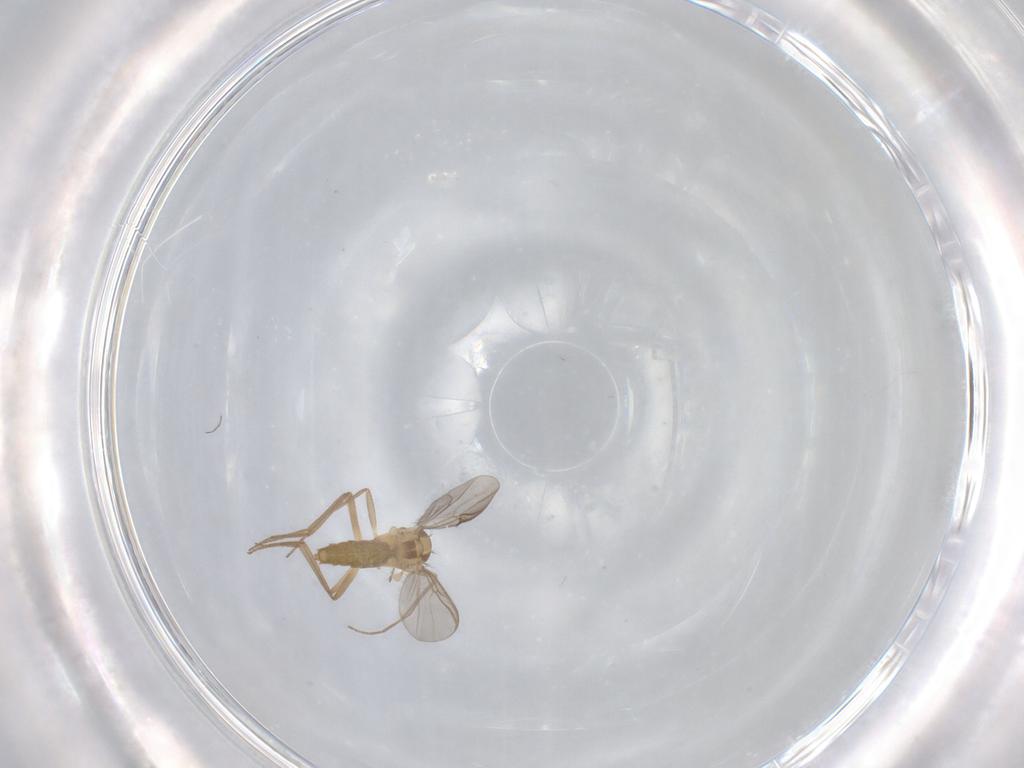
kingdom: Animalia
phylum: Arthropoda
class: Insecta
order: Diptera
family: Chironomidae
